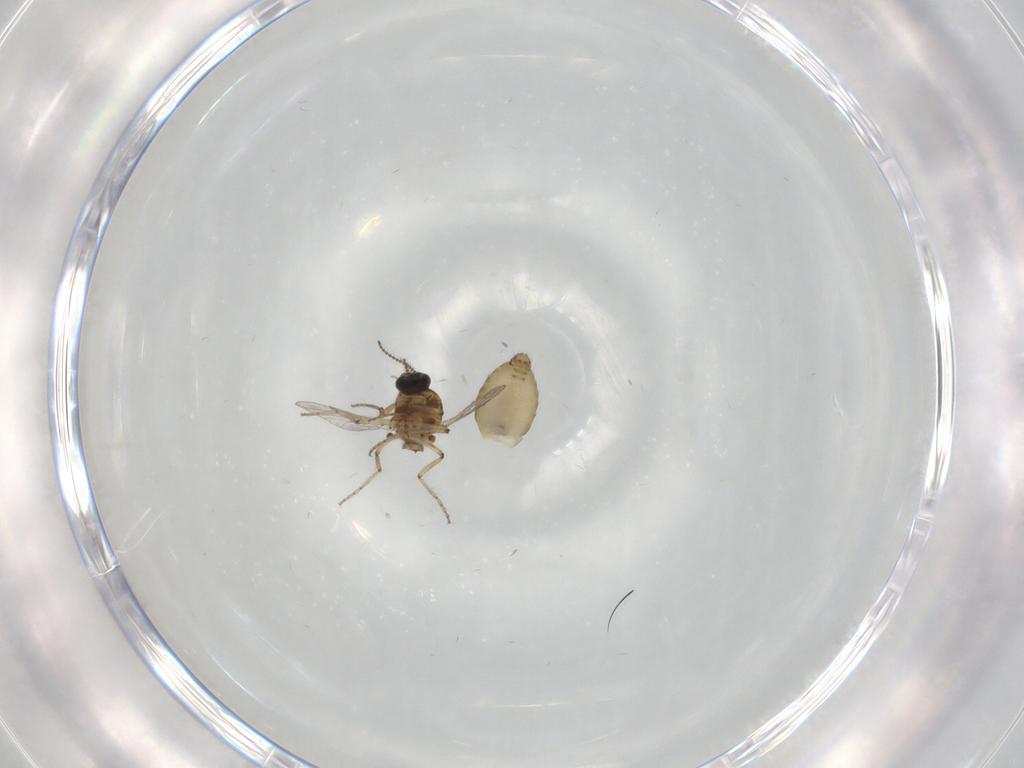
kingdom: Animalia
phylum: Arthropoda
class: Insecta
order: Diptera
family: Ceratopogonidae
